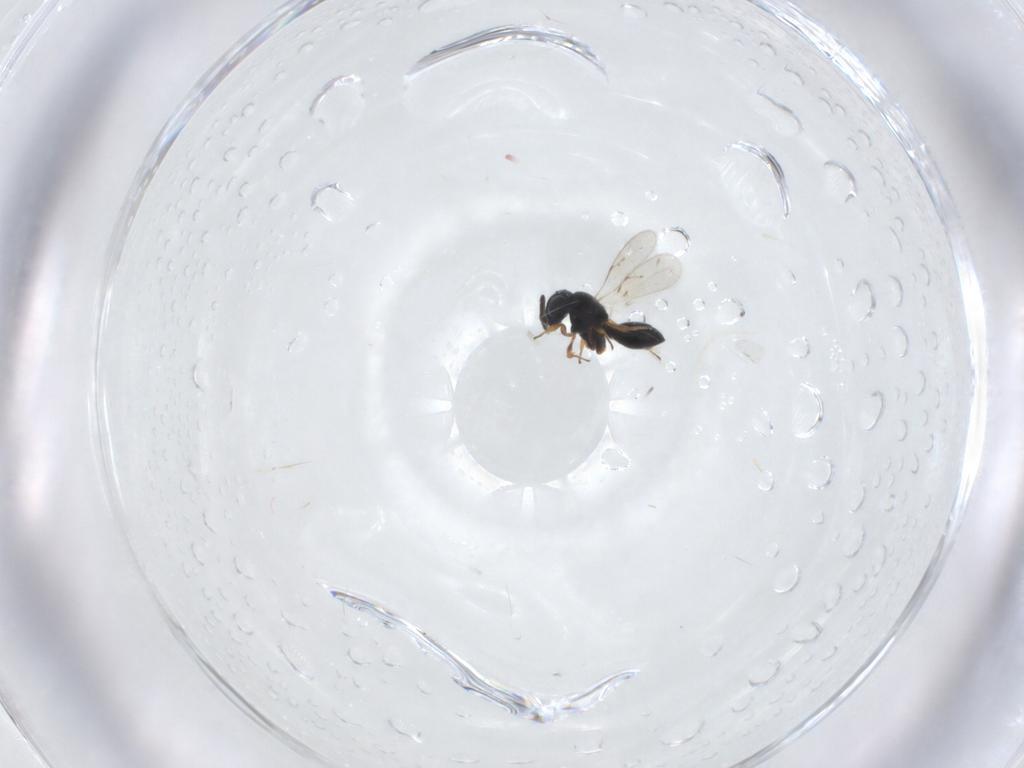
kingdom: Animalia
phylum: Arthropoda
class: Insecta
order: Hymenoptera
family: Scelionidae
